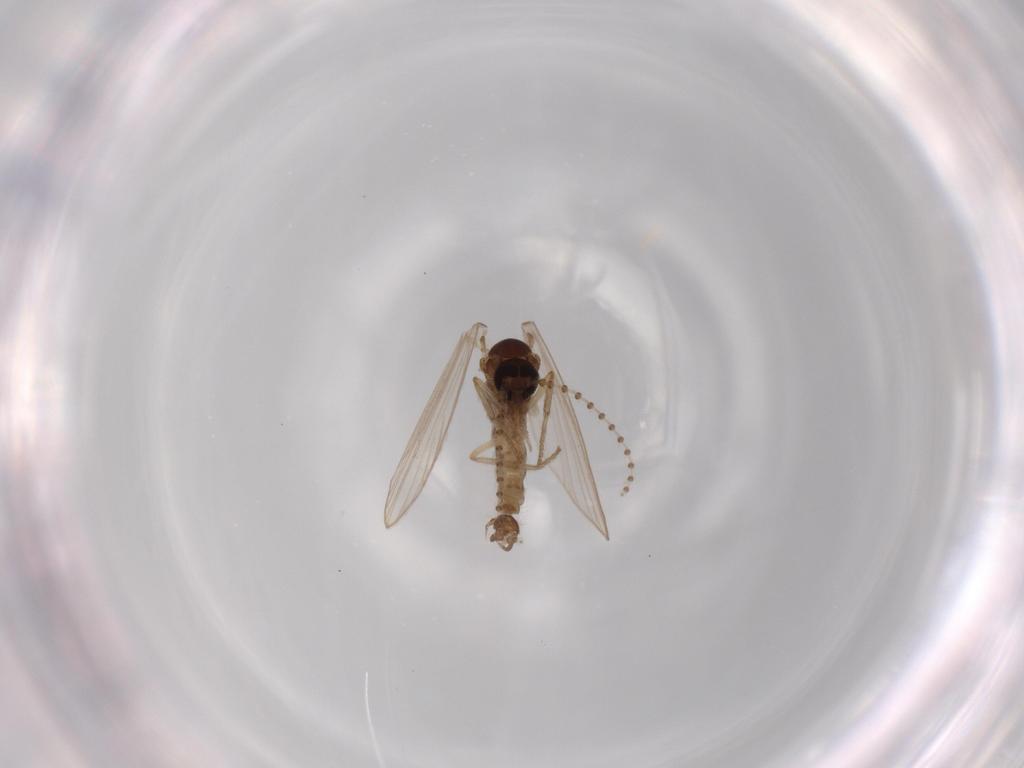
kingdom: Animalia
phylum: Arthropoda
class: Insecta
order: Diptera
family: Psychodidae
